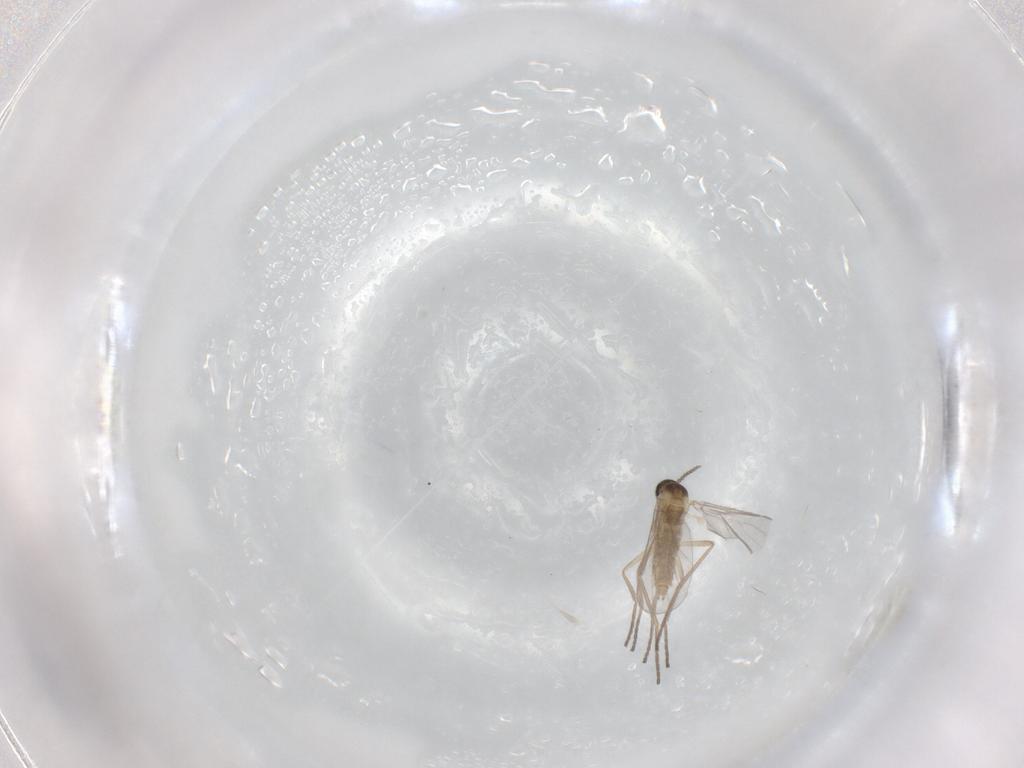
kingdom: Animalia
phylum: Arthropoda
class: Insecta
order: Diptera
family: Cecidomyiidae
